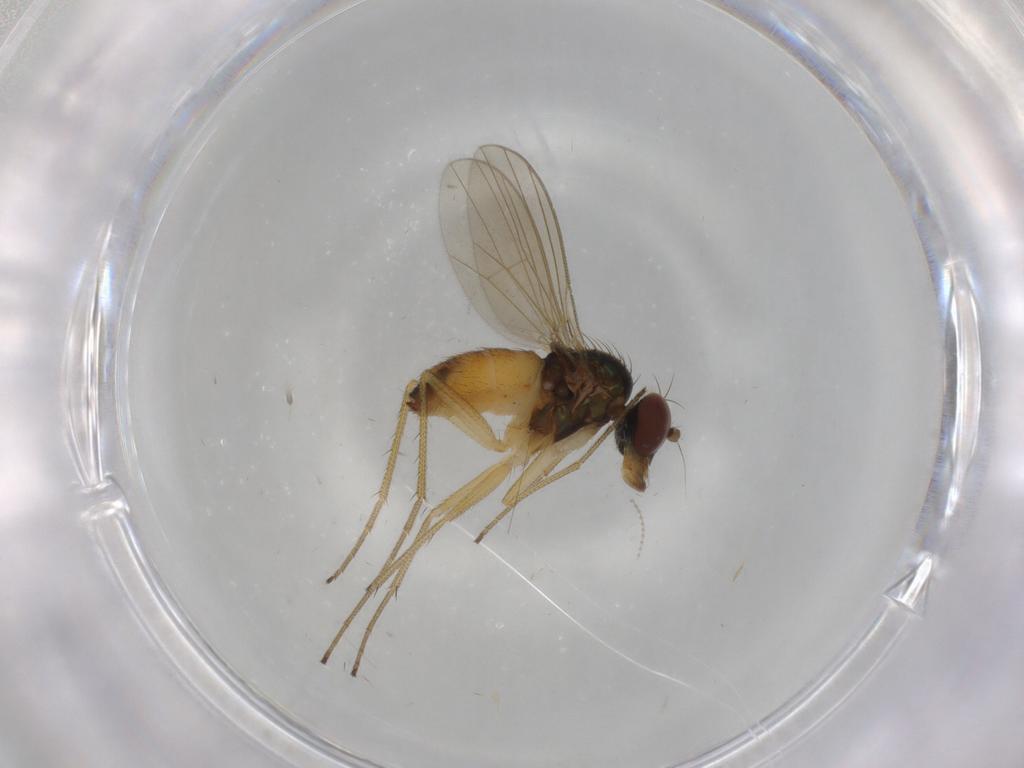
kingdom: Animalia
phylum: Arthropoda
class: Insecta
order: Diptera
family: Dolichopodidae
